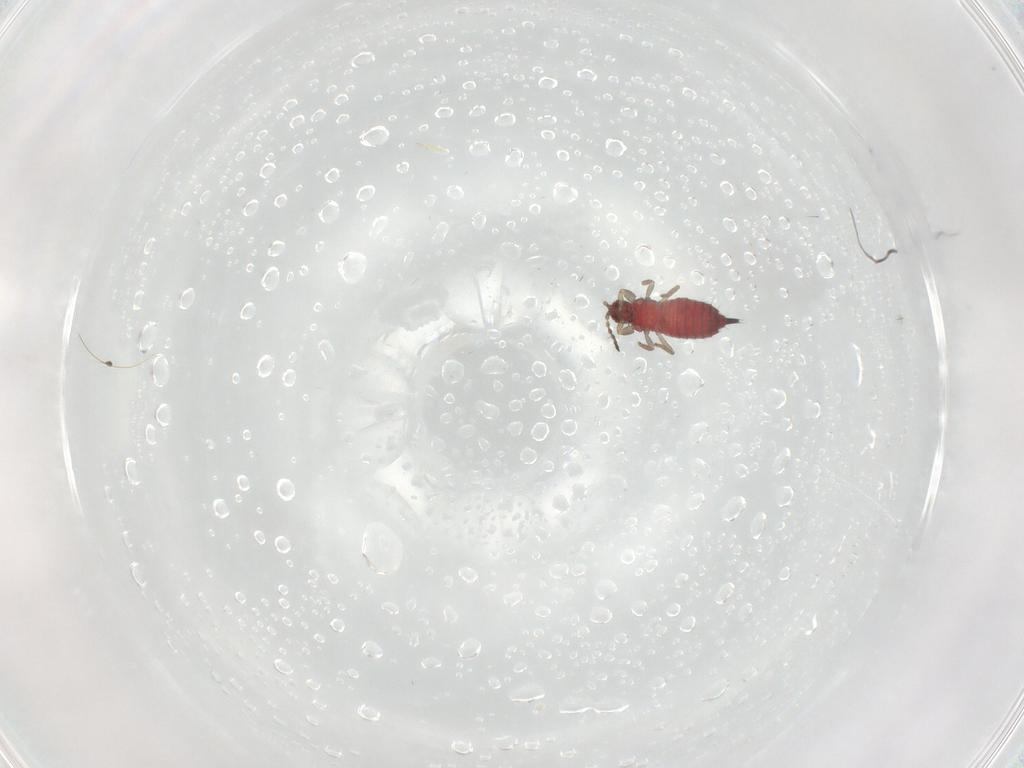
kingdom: Animalia
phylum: Arthropoda
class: Insecta
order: Thysanoptera
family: Phlaeothripidae
